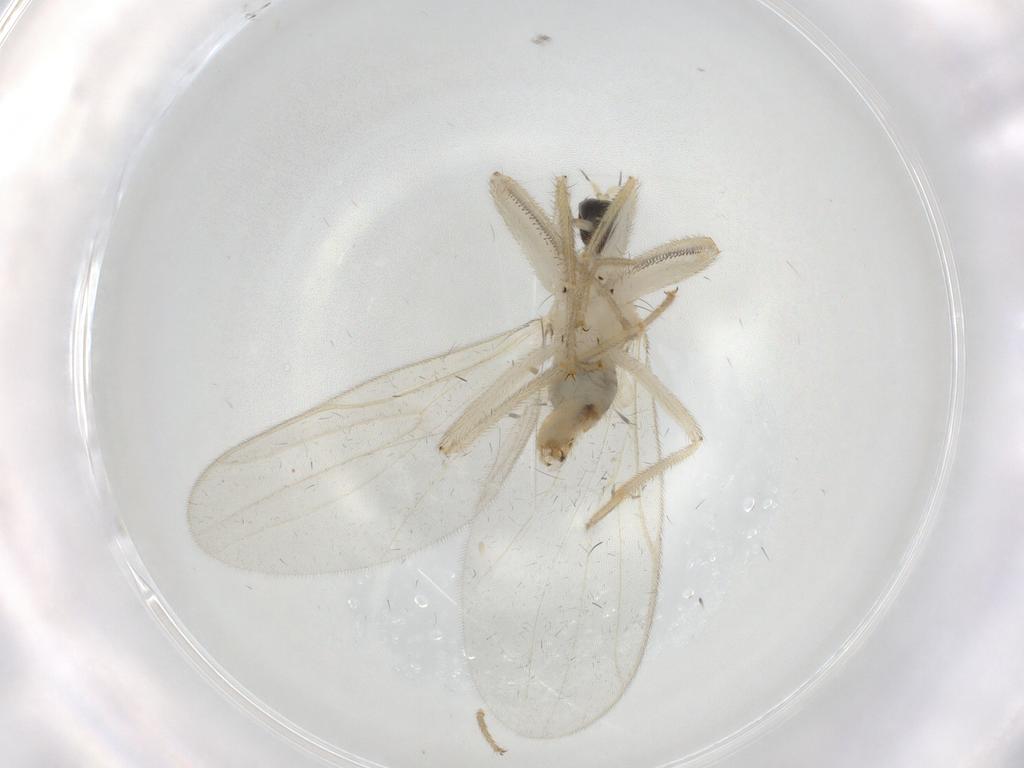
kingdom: Animalia
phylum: Arthropoda
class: Insecta
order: Diptera
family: Hybotidae
